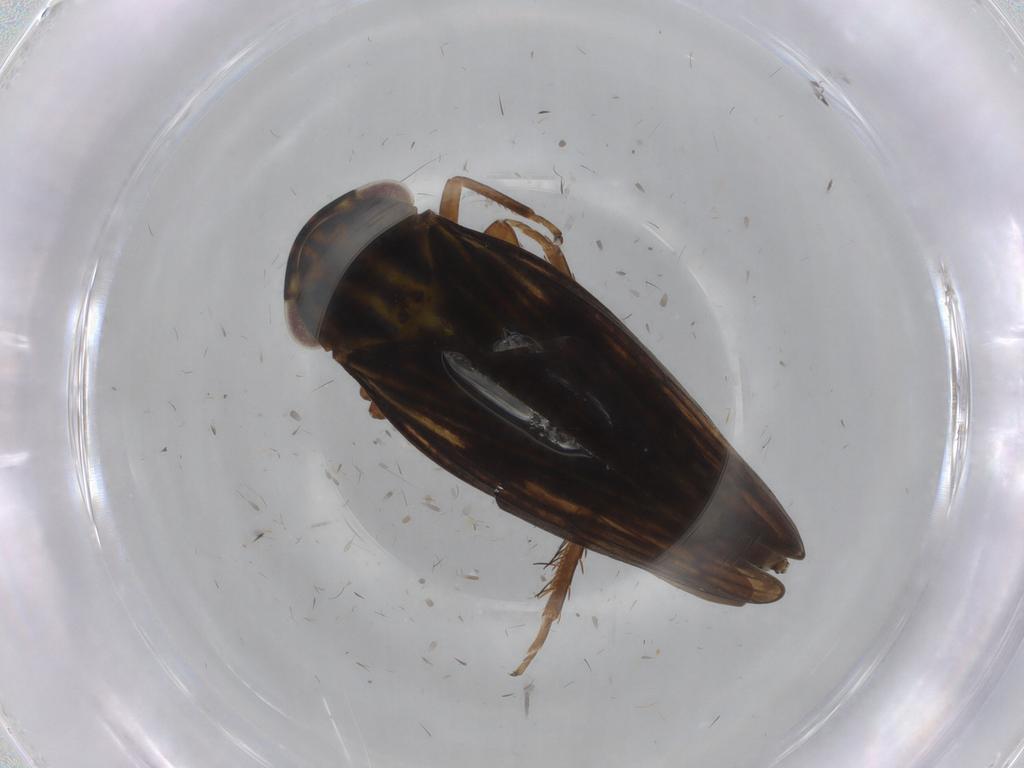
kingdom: Animalia
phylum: Arthropoda
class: Insecta
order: Hemiptera
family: Cicadellidae
